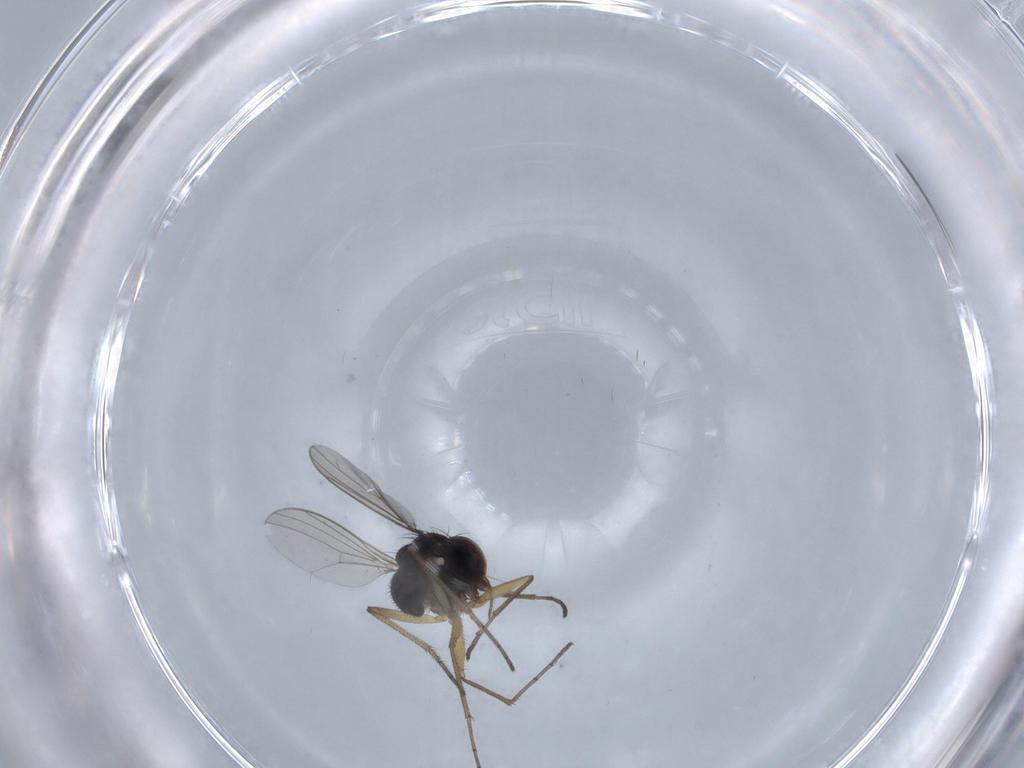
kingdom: Animalia
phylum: Arthropoda
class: Insecta
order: Diptera
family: Dolichopodidae
